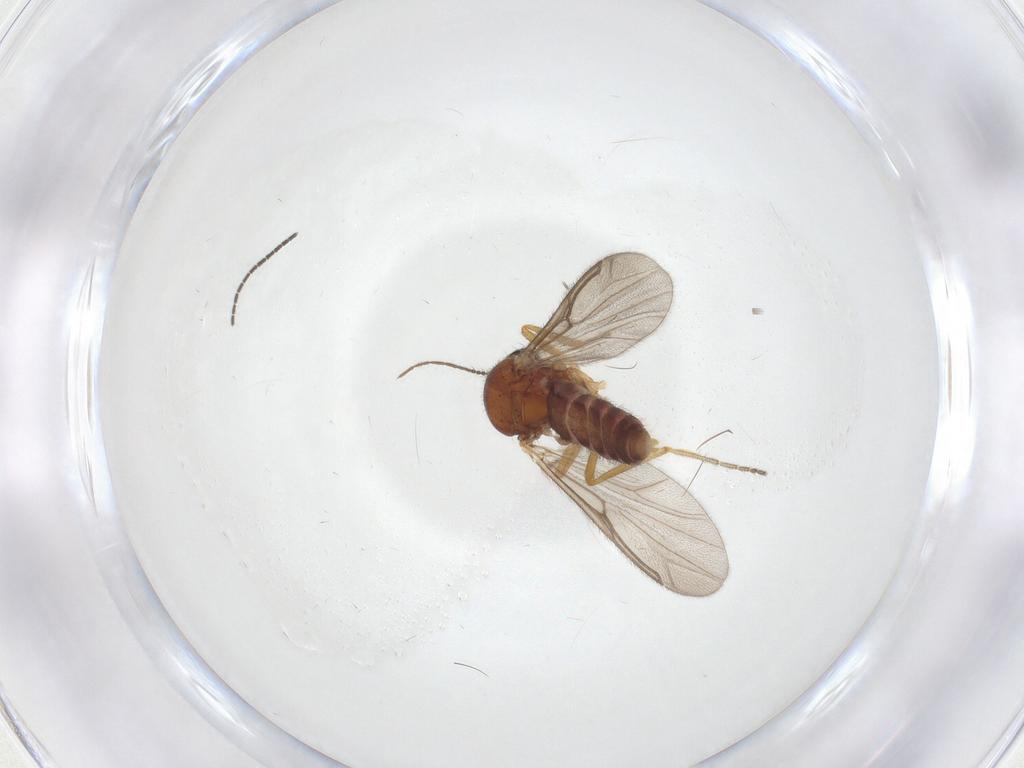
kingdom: Animalia
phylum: Arthropoda
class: Insecta
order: Diptera
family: Ceratopogonidae
